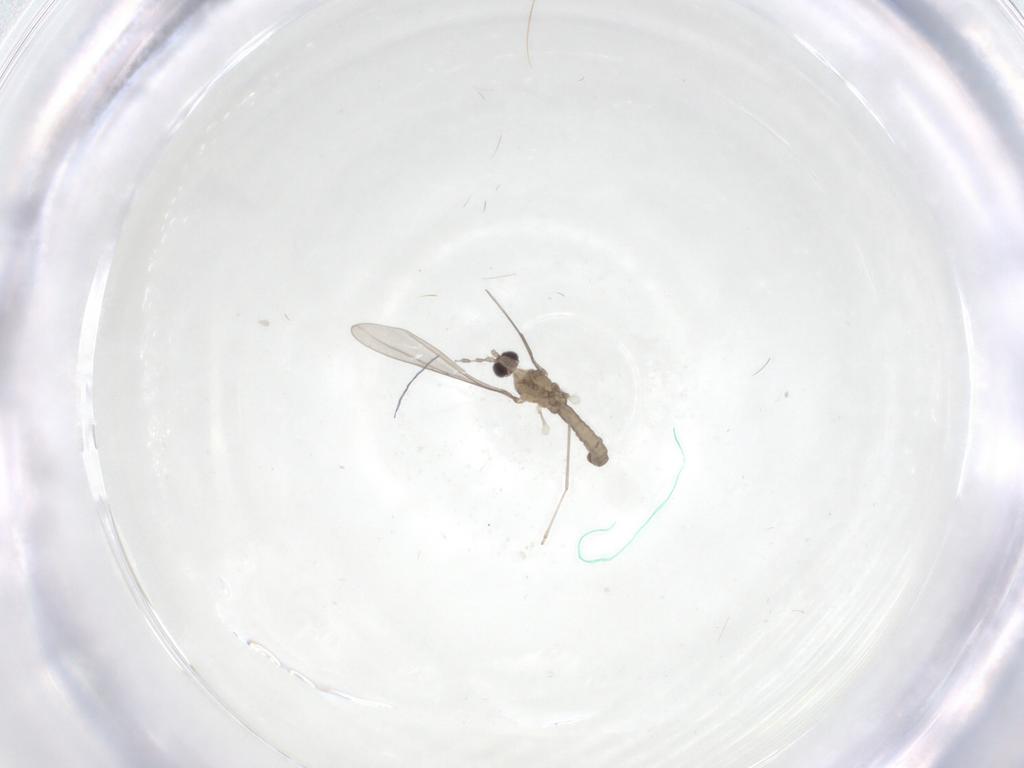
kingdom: Animalia
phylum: Arthropoda
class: Insecta
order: Diptera
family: Cecidomyiidae
